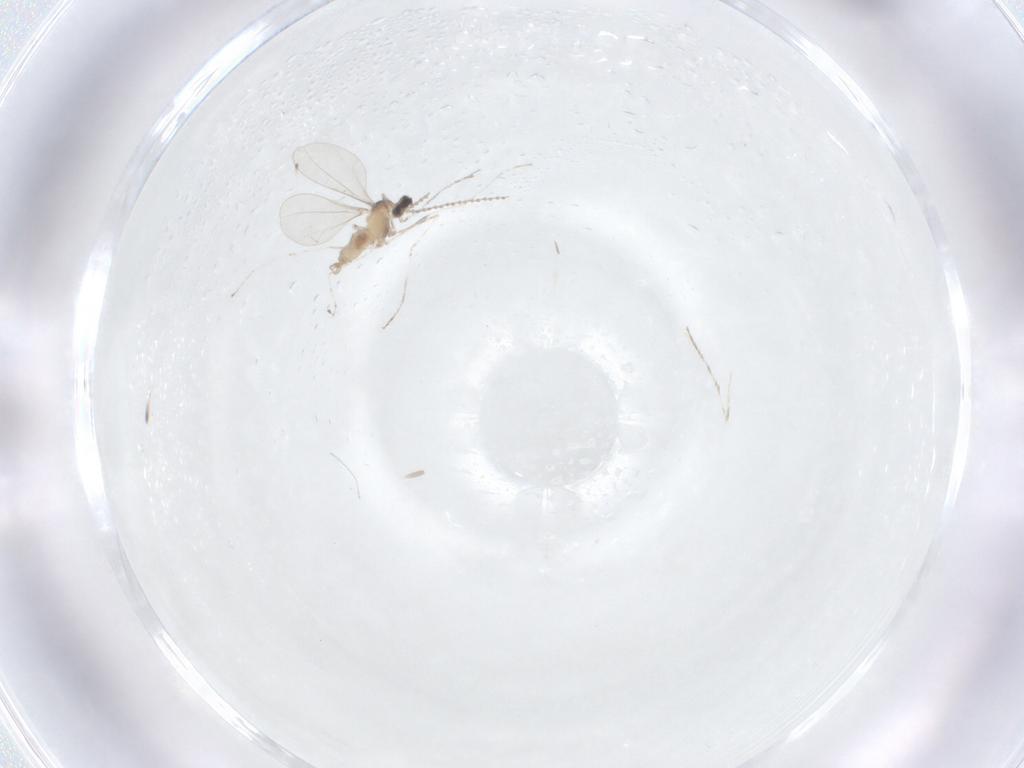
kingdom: Animalia
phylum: Arthropoda
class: Insecta
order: Diptera
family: Cecidomyiidae
